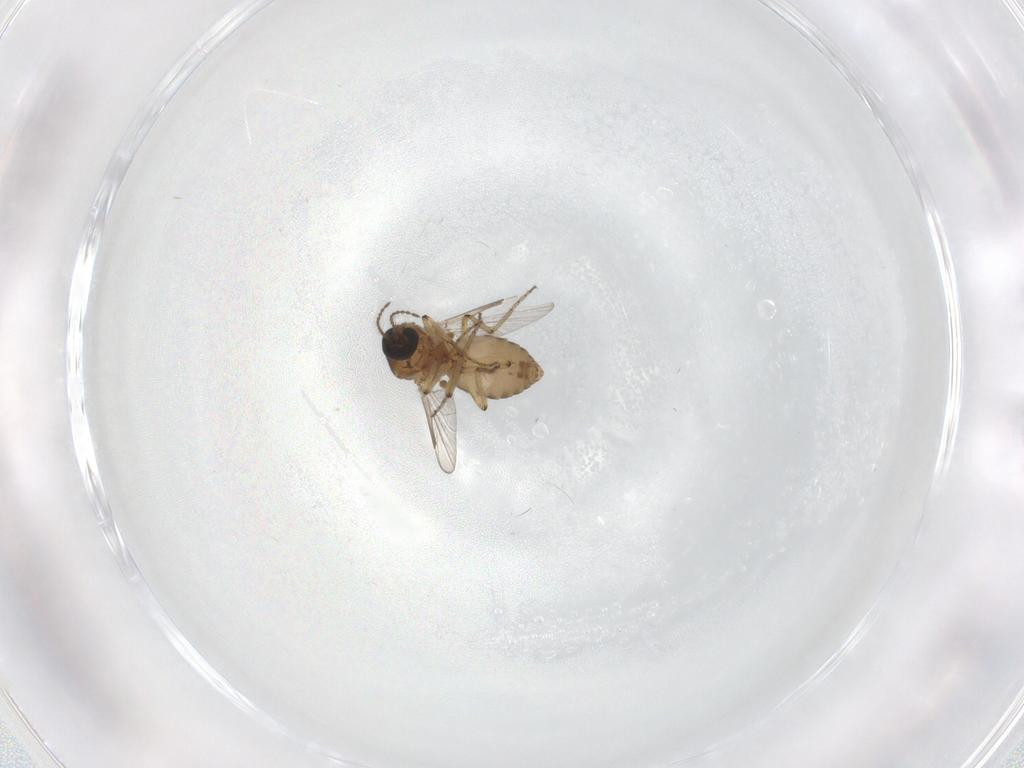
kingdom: Animalia
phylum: Arthropoda
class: Insecta
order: Diptera
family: Ceratopogonidae
